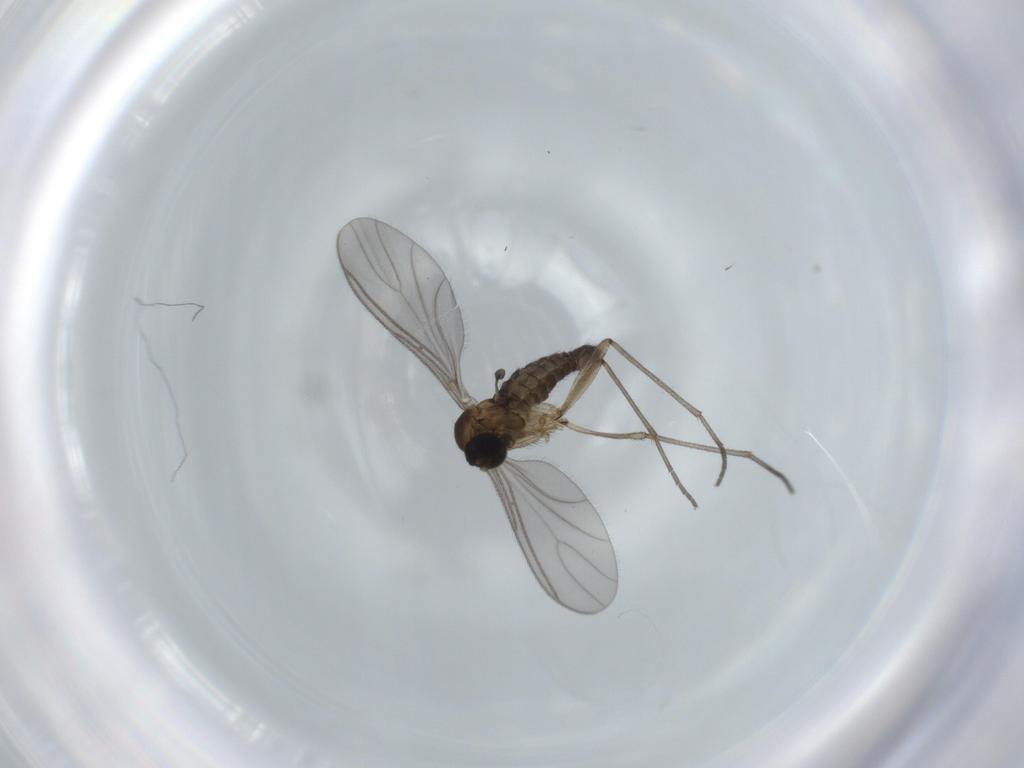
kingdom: Animalia
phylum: Arthropoda
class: Insecta
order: Diptera
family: Sciaridae
